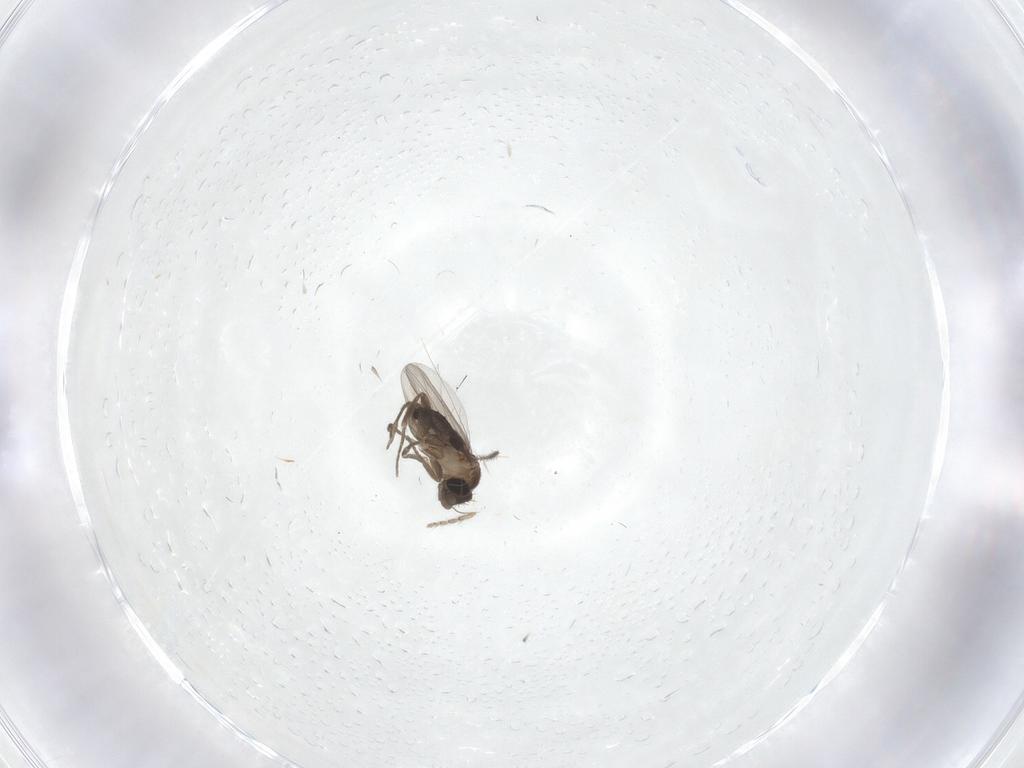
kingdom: Animalia
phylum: Arthropoda
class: Insecta
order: Diptera
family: Phoridae
